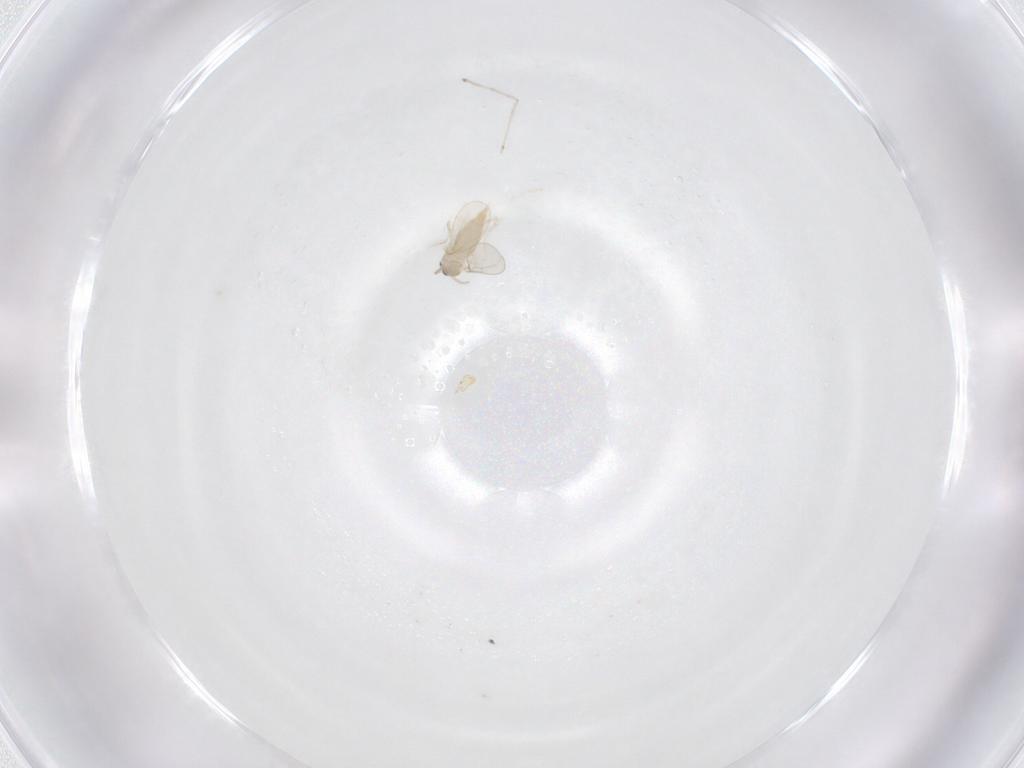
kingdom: Animalia
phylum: Arthropoda
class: Insecta
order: Diptera
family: Cecidomyiidae
